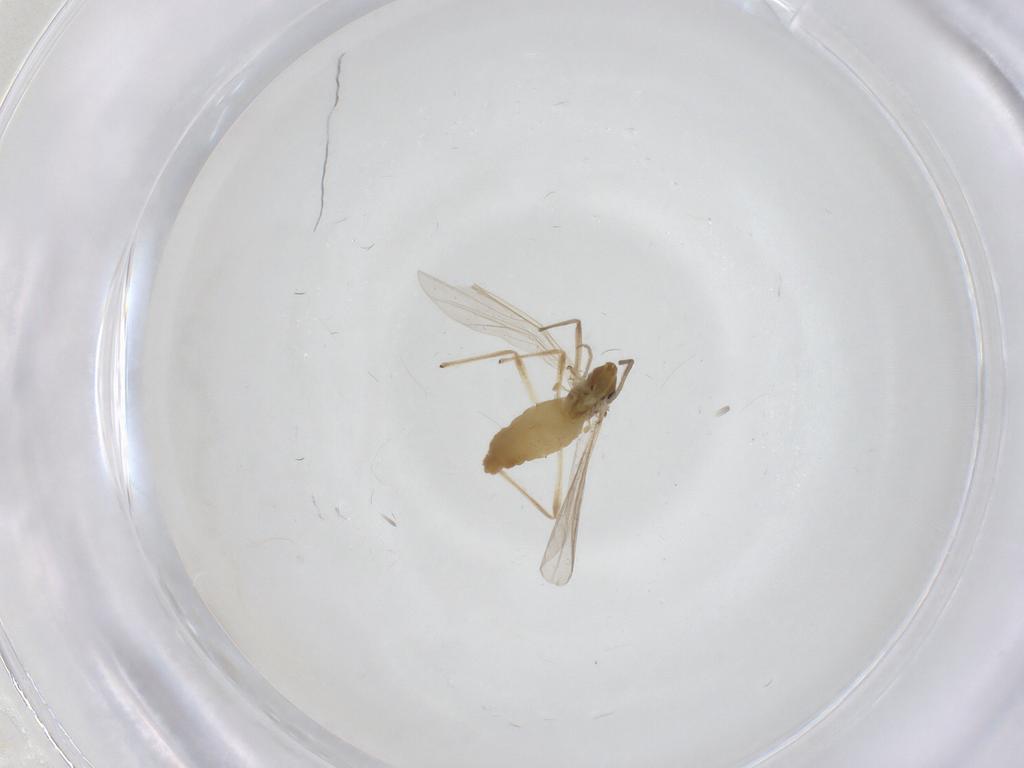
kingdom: Animalia
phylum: Arthropoda
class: Insecta
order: Diptera
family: Chironomidae
